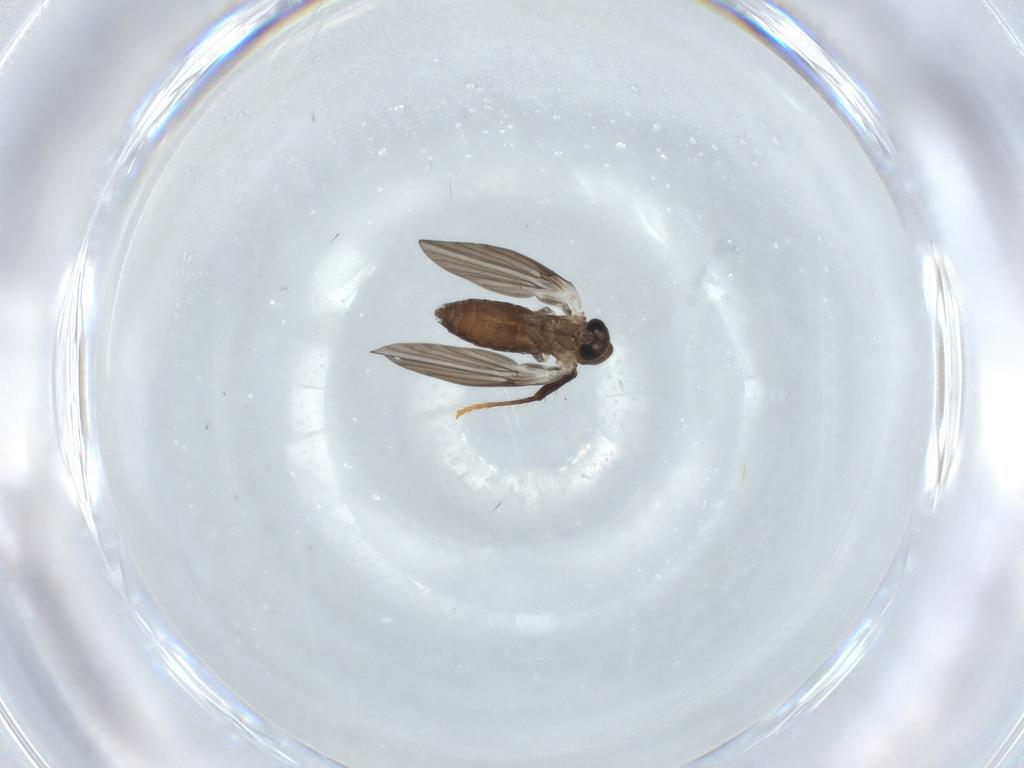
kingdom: Animalia
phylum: Arthropoda
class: Insecta
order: Diptera
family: Psychodidae
